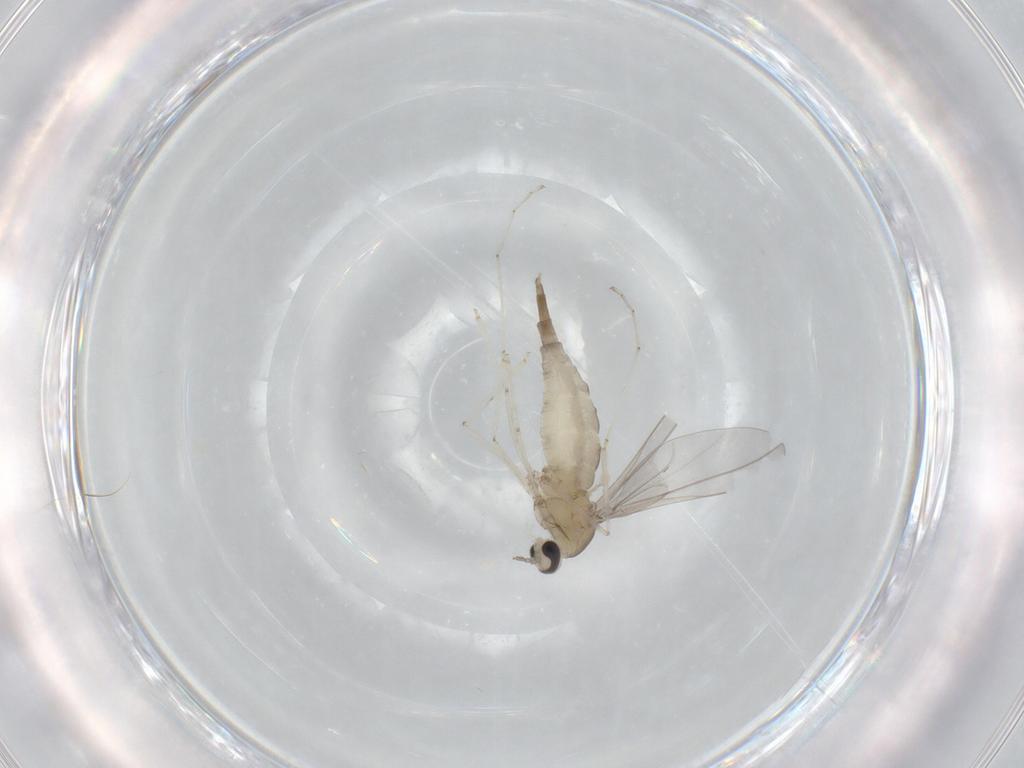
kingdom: Animalia
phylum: Arthropoda
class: Insecta
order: Diptera
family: Cecidomyiidae
